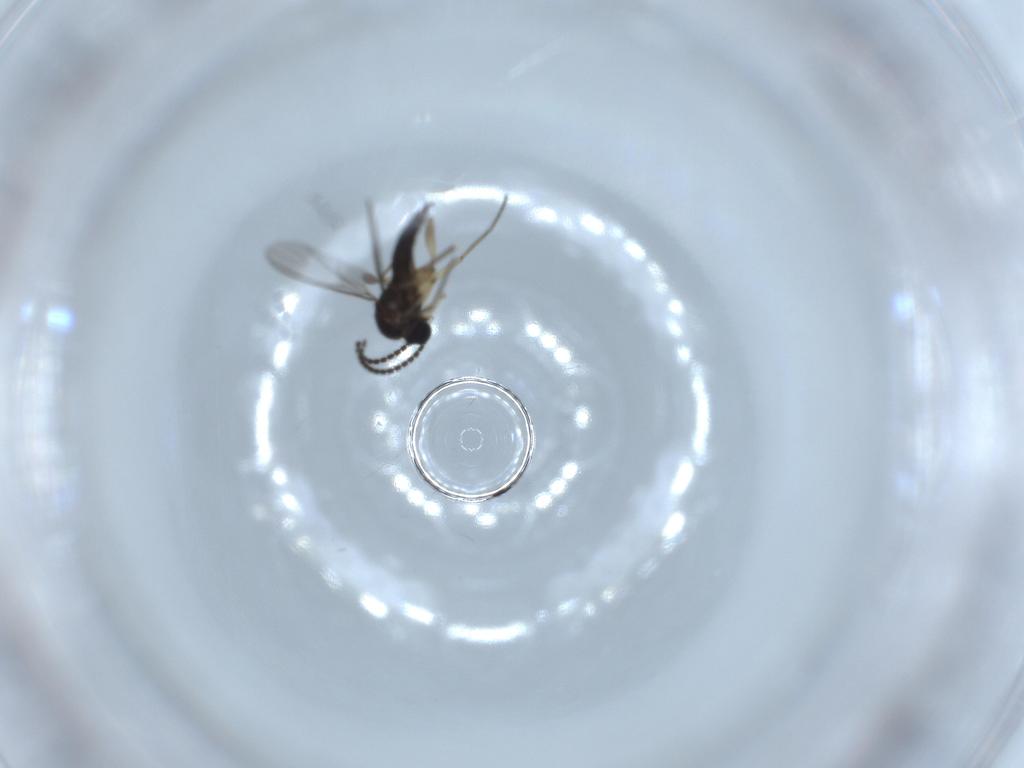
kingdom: Animalia
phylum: Arthropoda
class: Insecta
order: Diptera
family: Sciaridae
